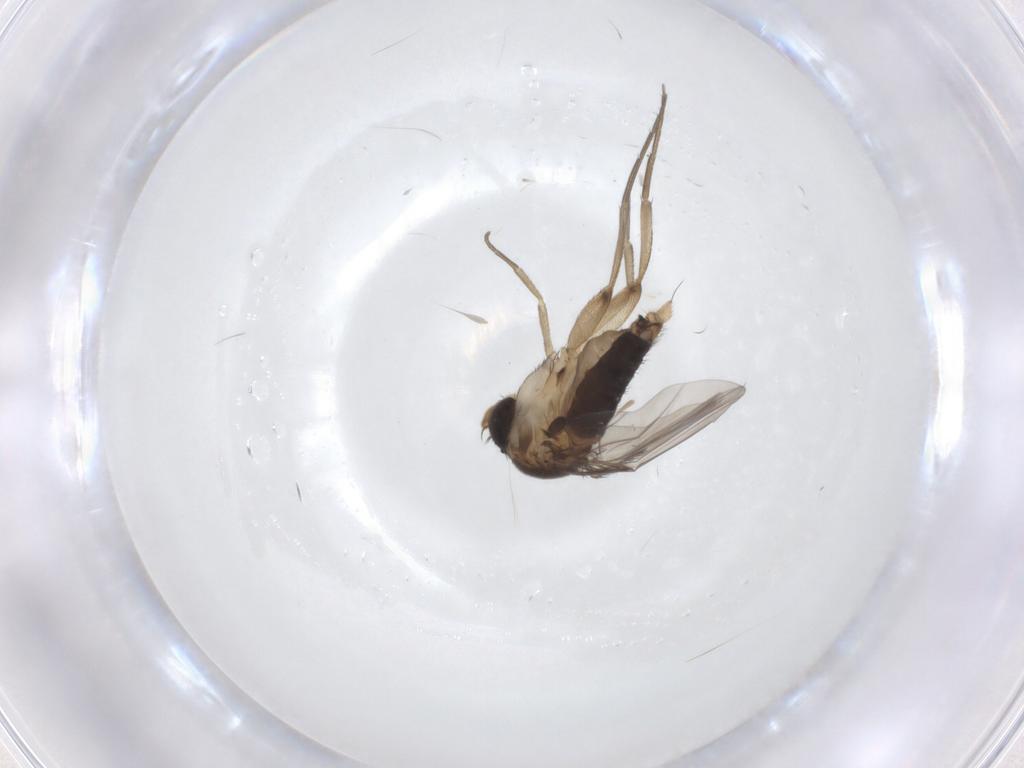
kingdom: Animalia
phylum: Arthropoda
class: Insecta
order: Diptera
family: Phoridae
